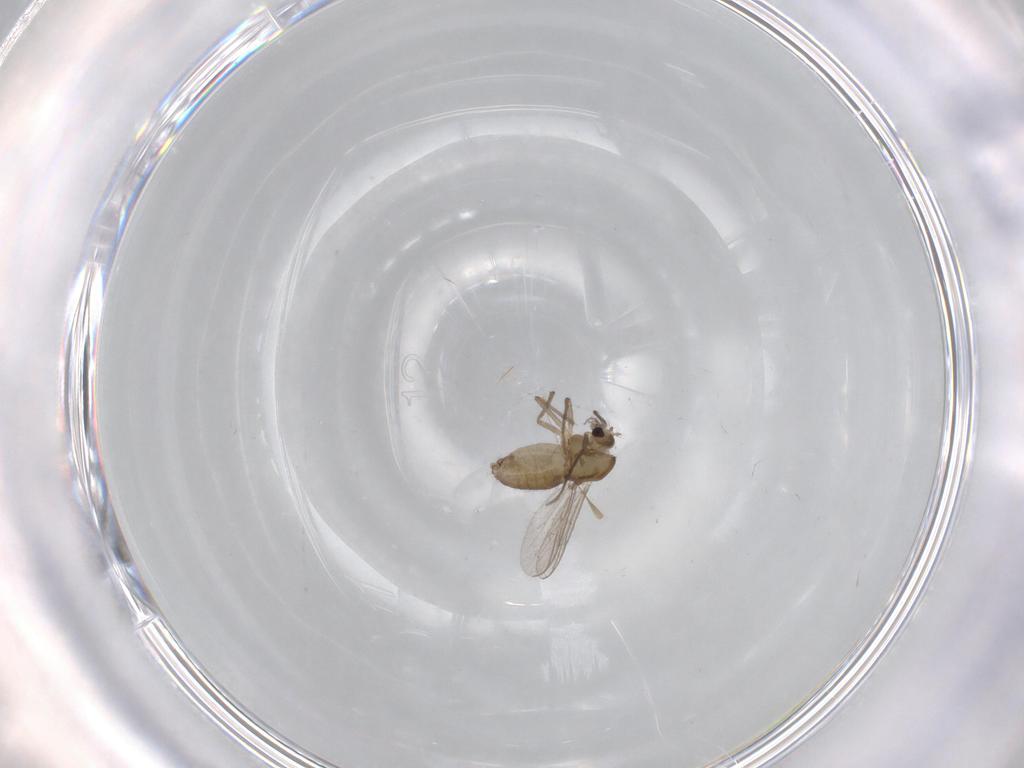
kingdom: Animalia
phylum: Arthropoda
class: Insecta
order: Diptera
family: Chironomidae
